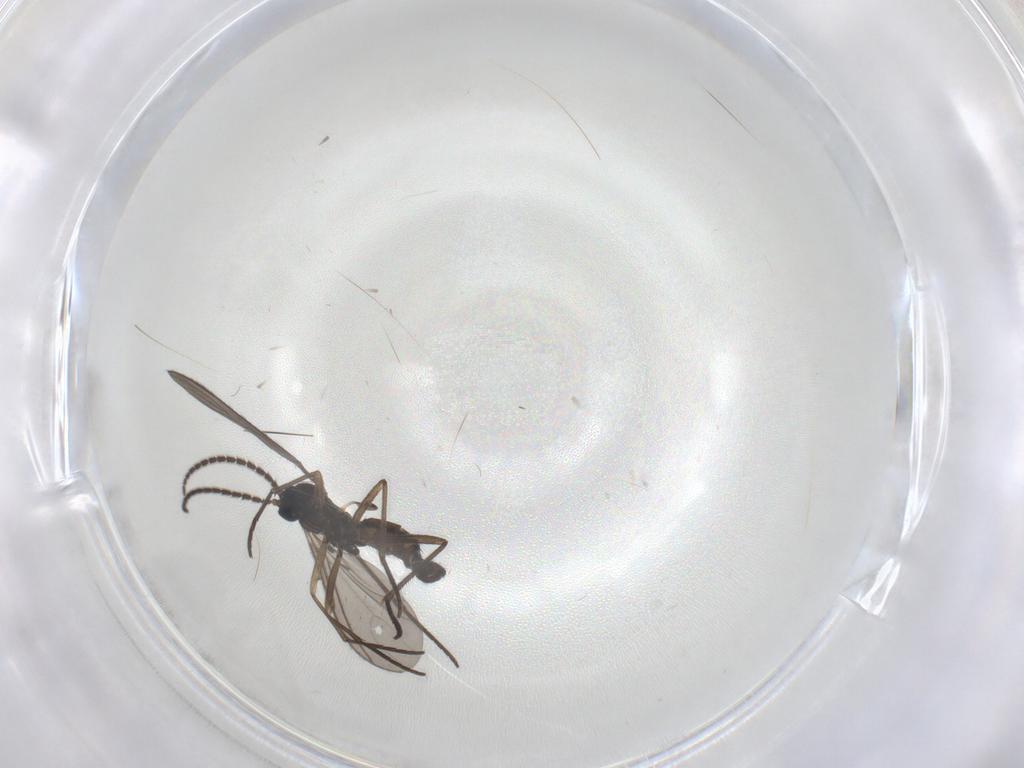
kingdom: Animalia
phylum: Arthropoda
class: Insecta
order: Diptera
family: Sciaridae
